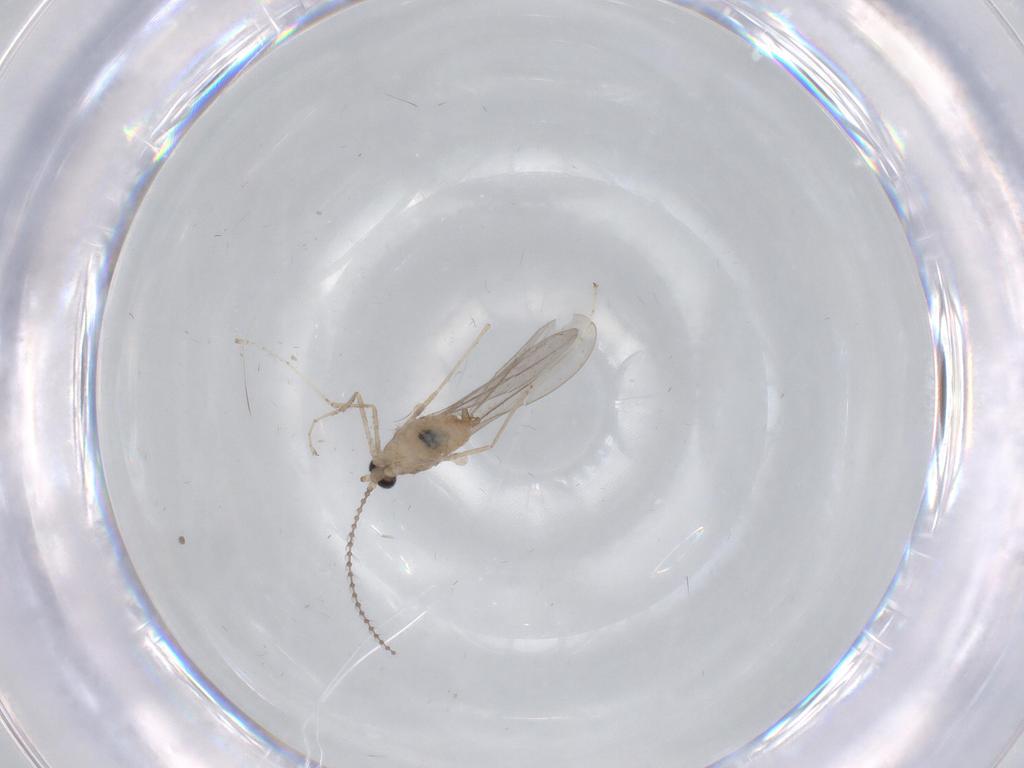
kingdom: Animalia
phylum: Arthropoda
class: Insecta
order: Diptera
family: Cecidomyiidae
